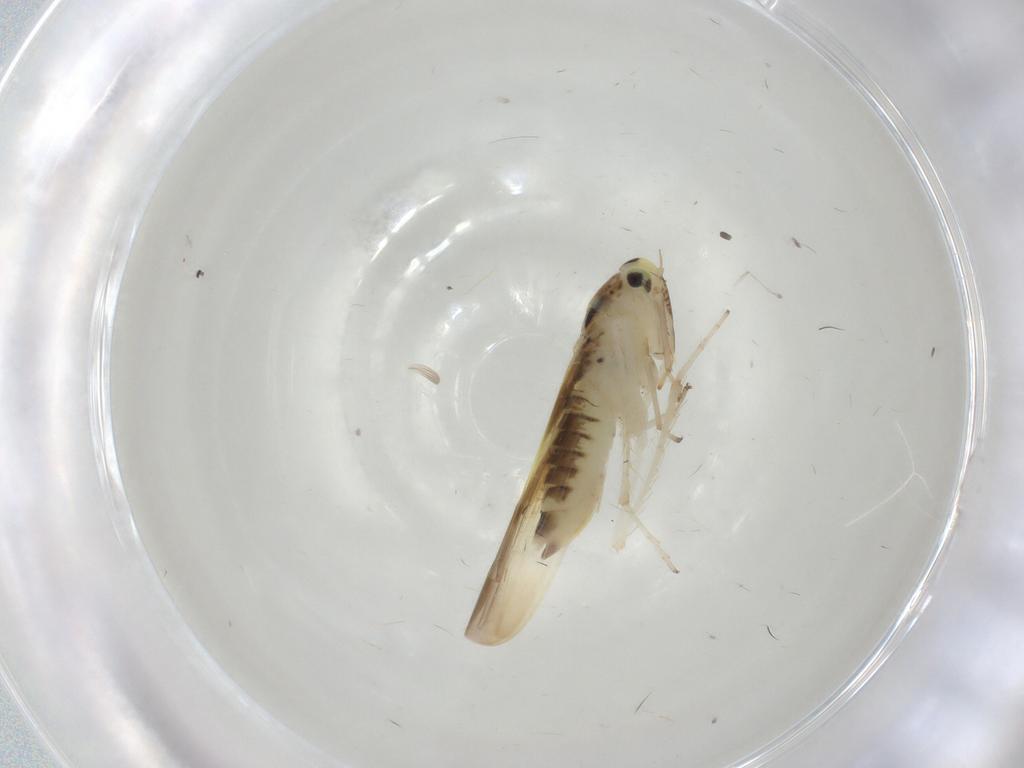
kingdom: Animalia
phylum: Arthropoda
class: Insecta
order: Hemiptera
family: Cicadellidae
